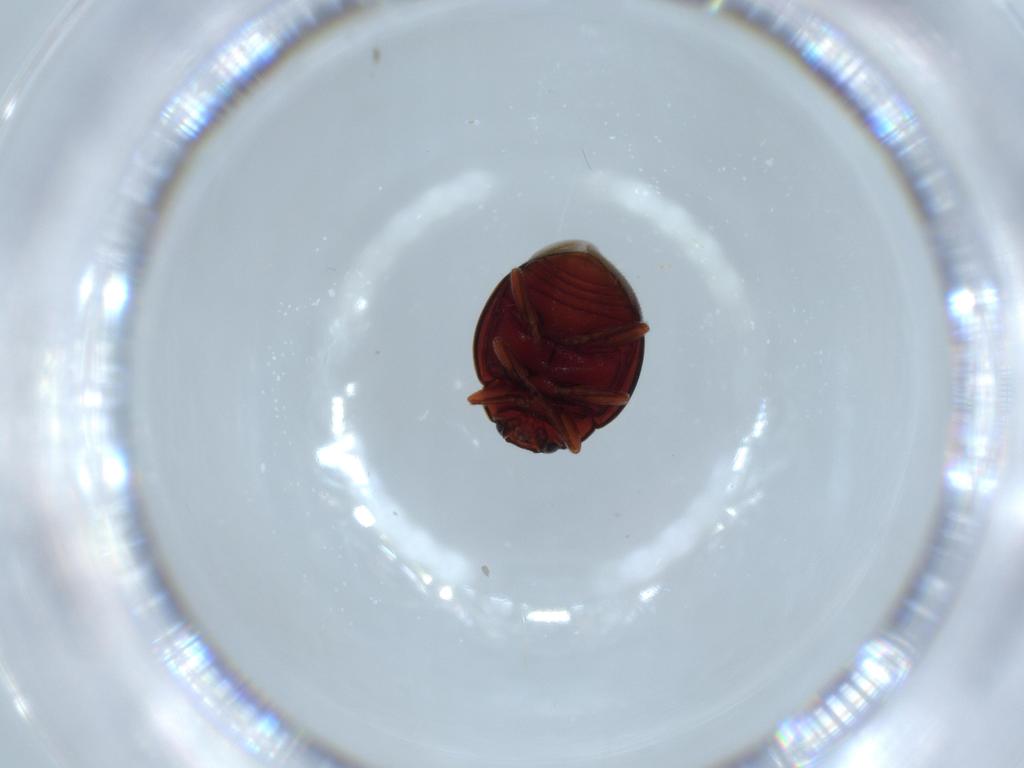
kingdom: Animalia
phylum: Arthropoda
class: Insecta
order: Coleoptera
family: Coccinellidae
